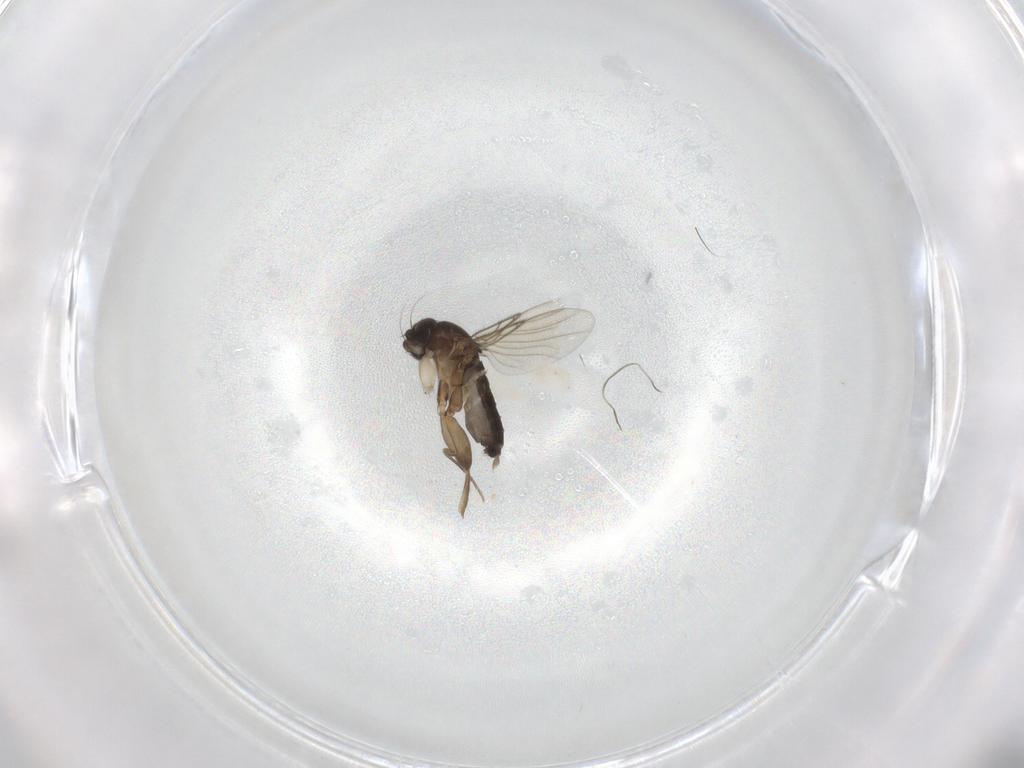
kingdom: Animalia
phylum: Arthropoda
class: Insecta
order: Diptera
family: Phoridae
